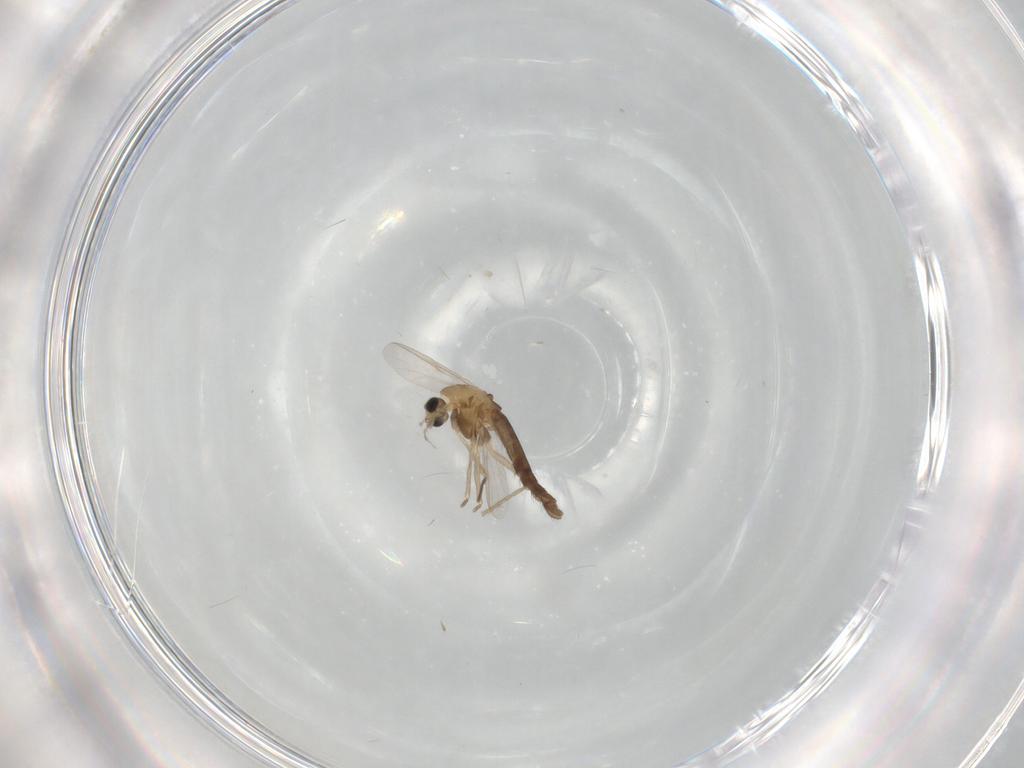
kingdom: Animalia
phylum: Arthropoda
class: Insecta
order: Diptera
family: Chironomidae
